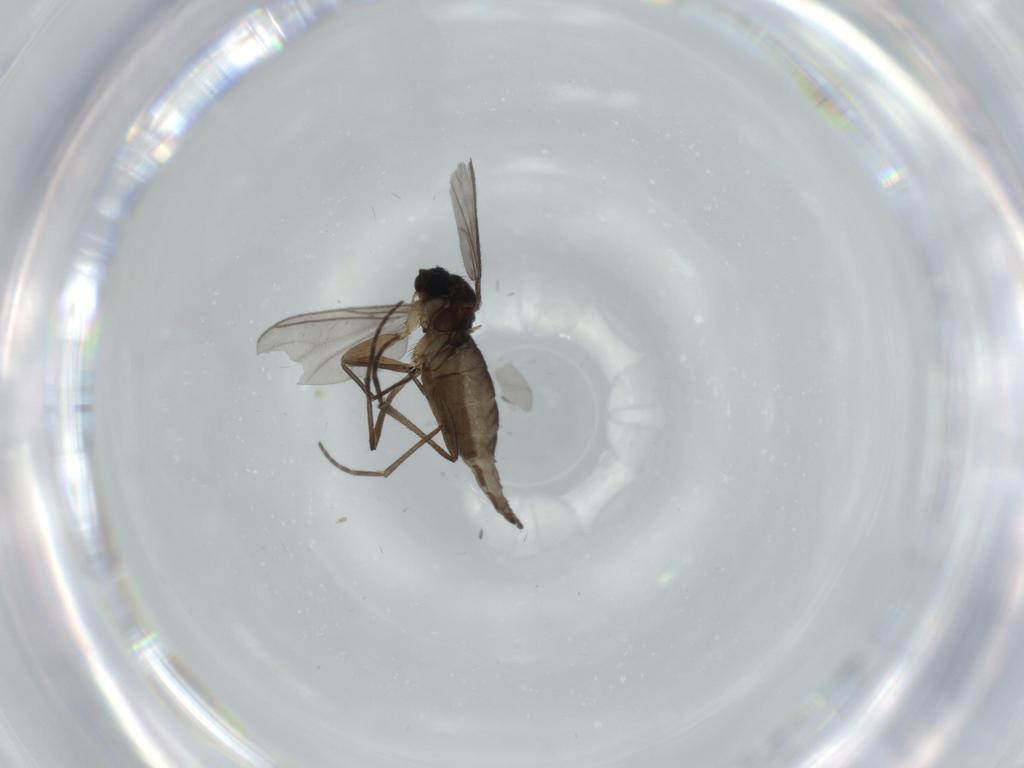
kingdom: Animalia
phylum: Arthropoda
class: Insecta
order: Diptera
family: Sciaridae
